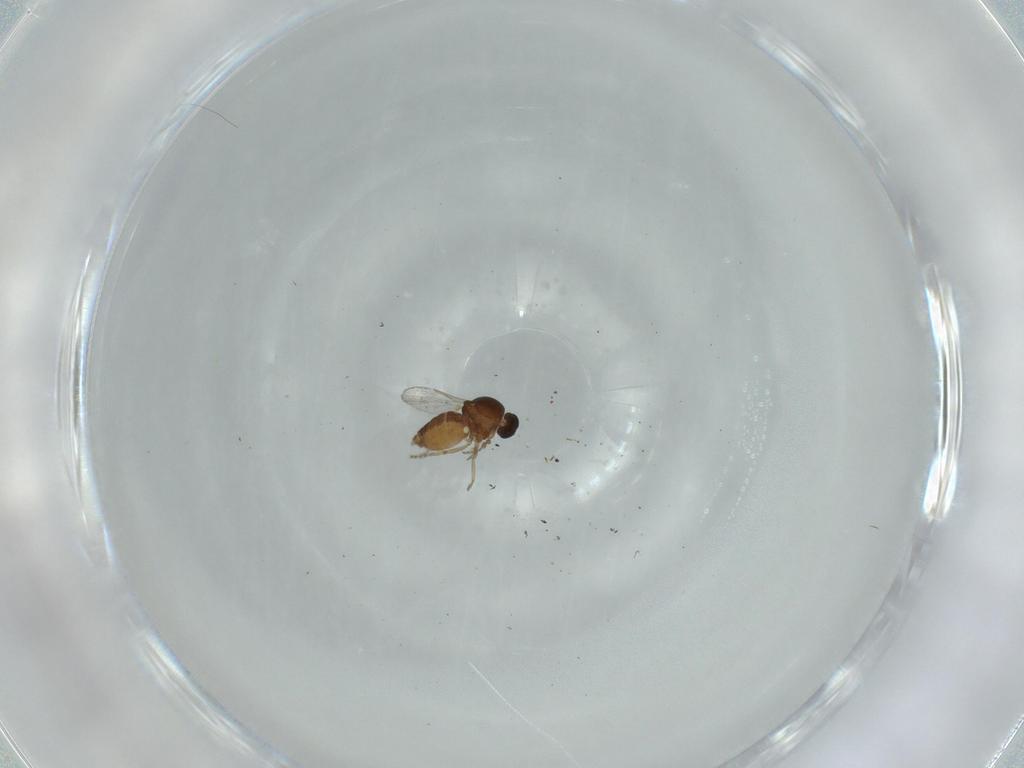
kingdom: Animalia
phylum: Arthropoda
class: Insecta
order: Diptera
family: Ceratopogonidae
